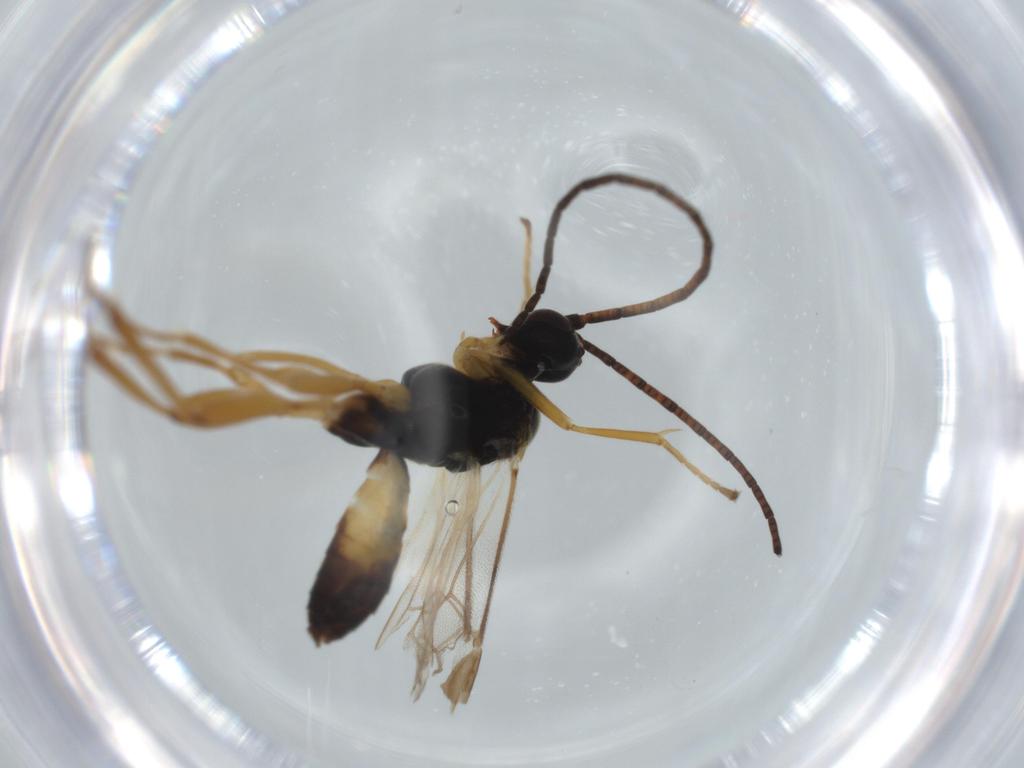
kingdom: Animalia
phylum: Arthropoda
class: Insecta
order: Hymenoptera
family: Braconidae
